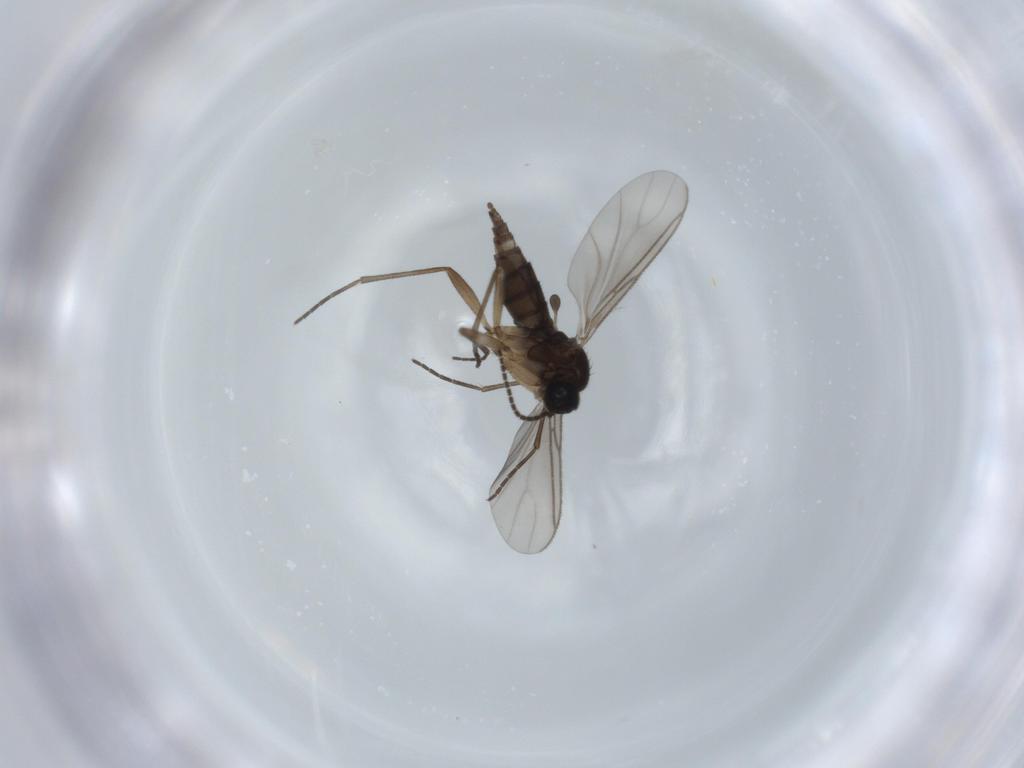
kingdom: Animalia
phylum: Arthropoda
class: Insecta
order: Diptera
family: Sciaridae
